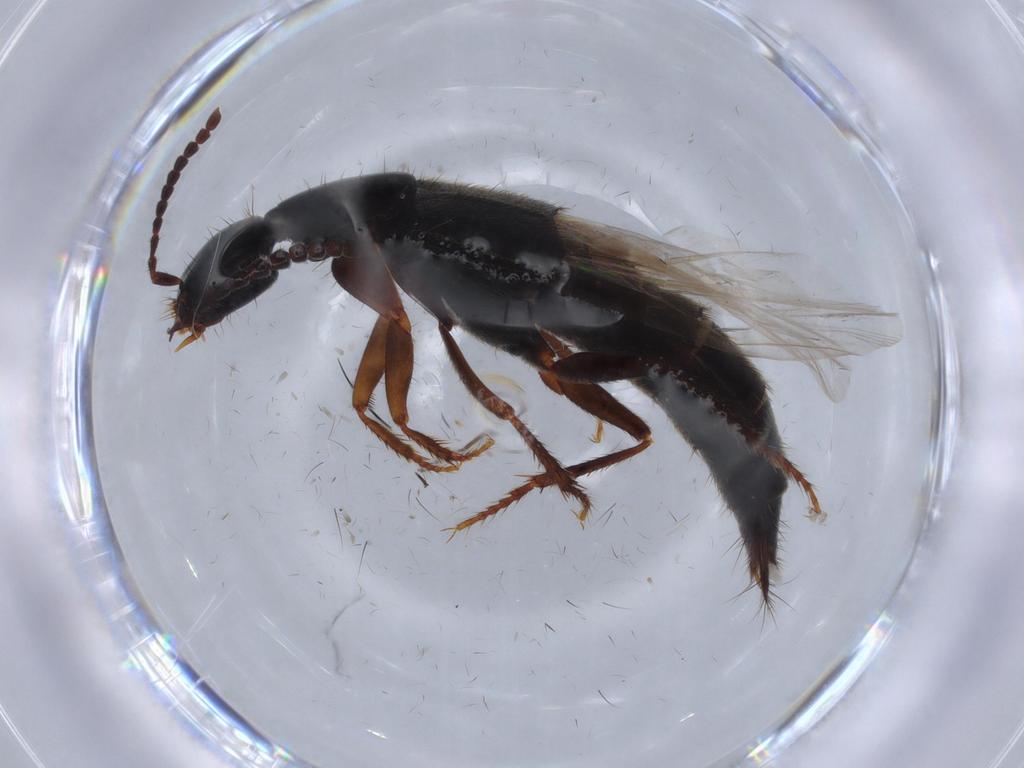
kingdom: Animalia
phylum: Arthropoda
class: Insecta
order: Coleoptera
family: Staphylinidae
